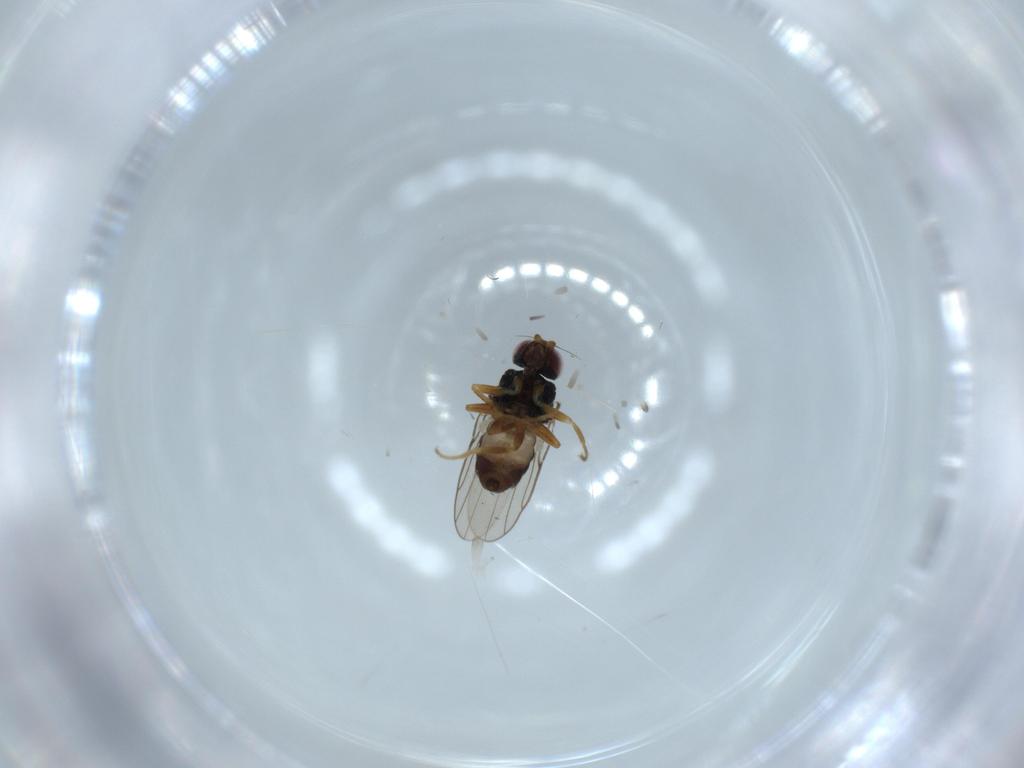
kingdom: Animalia
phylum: Arthropoda
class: Insecta
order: Diptera
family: Chloropidae
